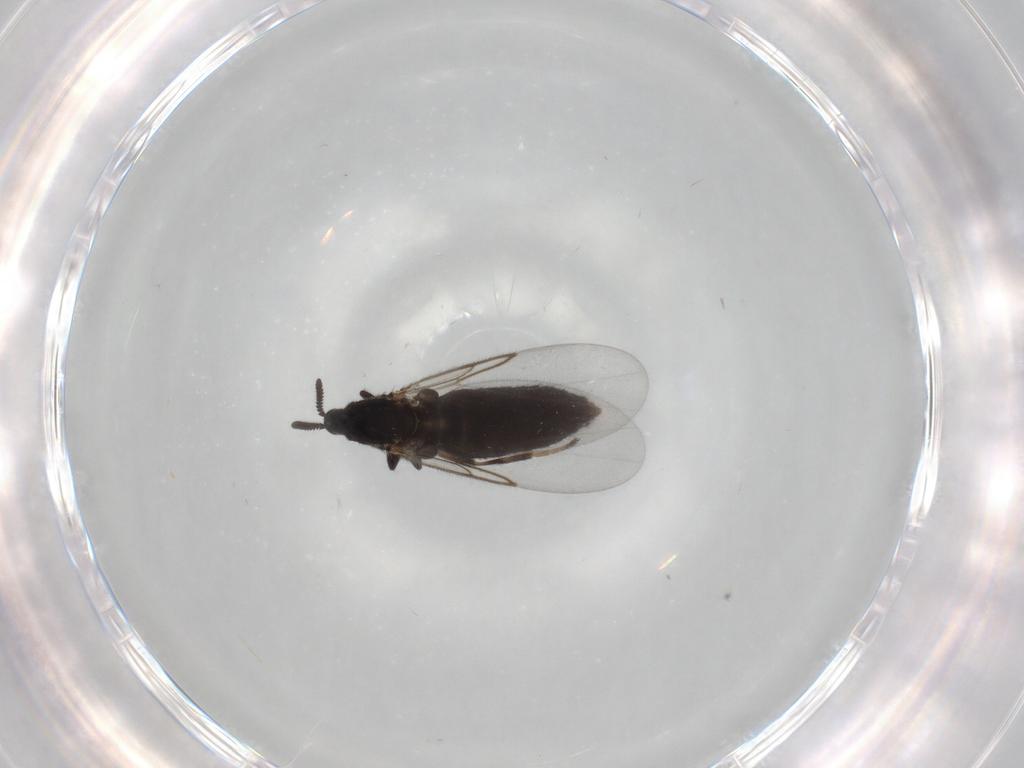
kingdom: Animalia
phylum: Arthropoda
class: Insecta
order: Diptera
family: Scatopsidae
